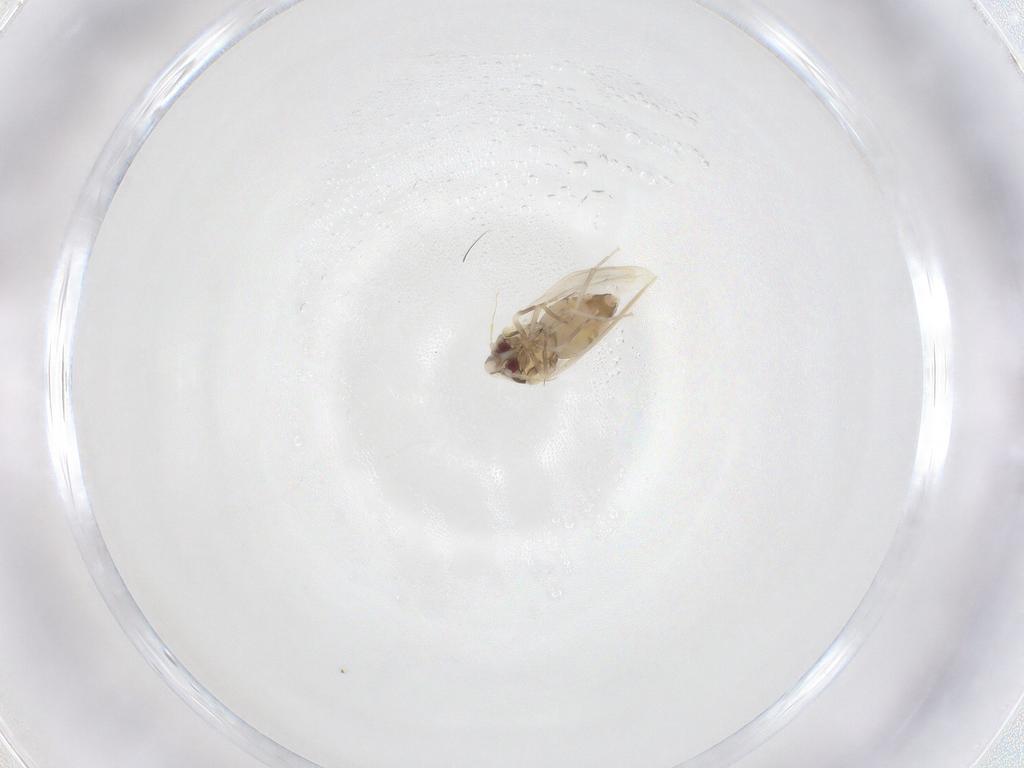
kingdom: Animalia
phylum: Arthropoda
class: Insecta
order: Hemiptera
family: Aleyrodidae
